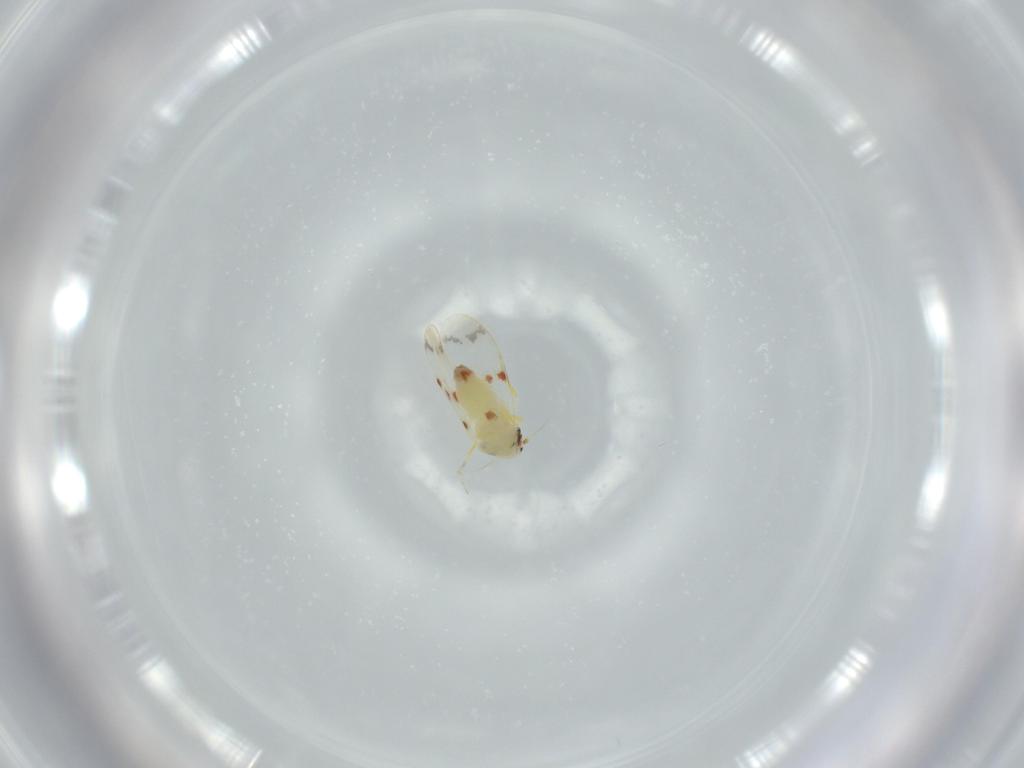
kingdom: Animalia
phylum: Arthropoda
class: Insecta
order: Hemiptera
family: Aleyrodidae
